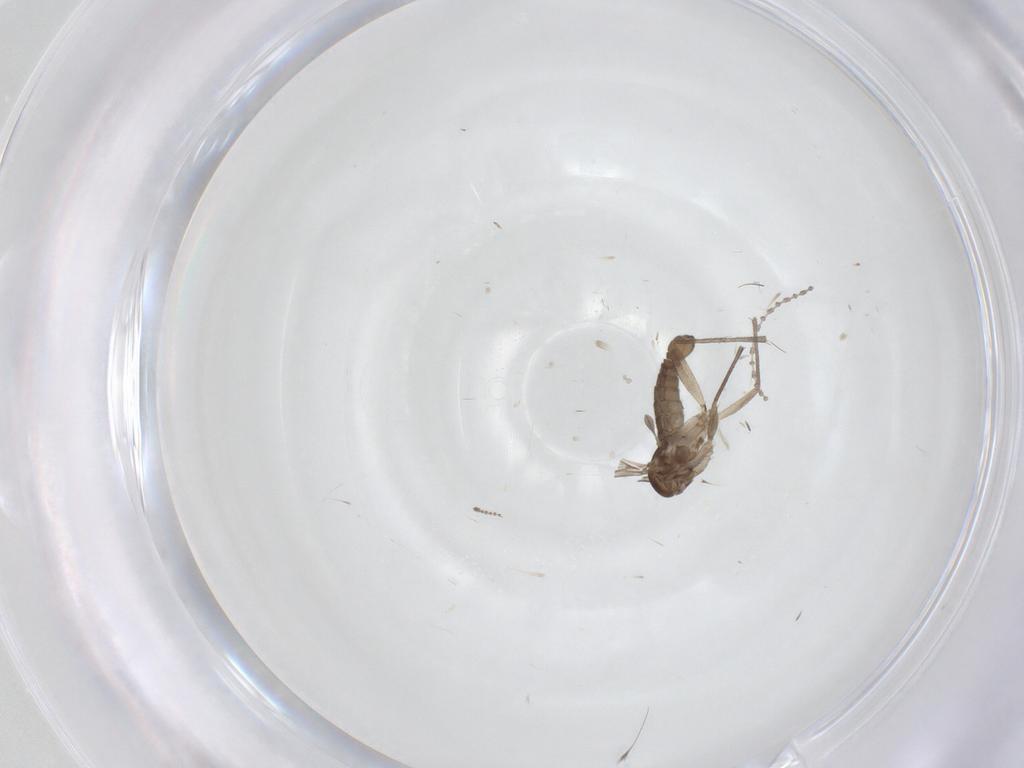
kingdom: Animalia
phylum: Arthropoda
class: Insecta
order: Diptera
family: Sciaridae
